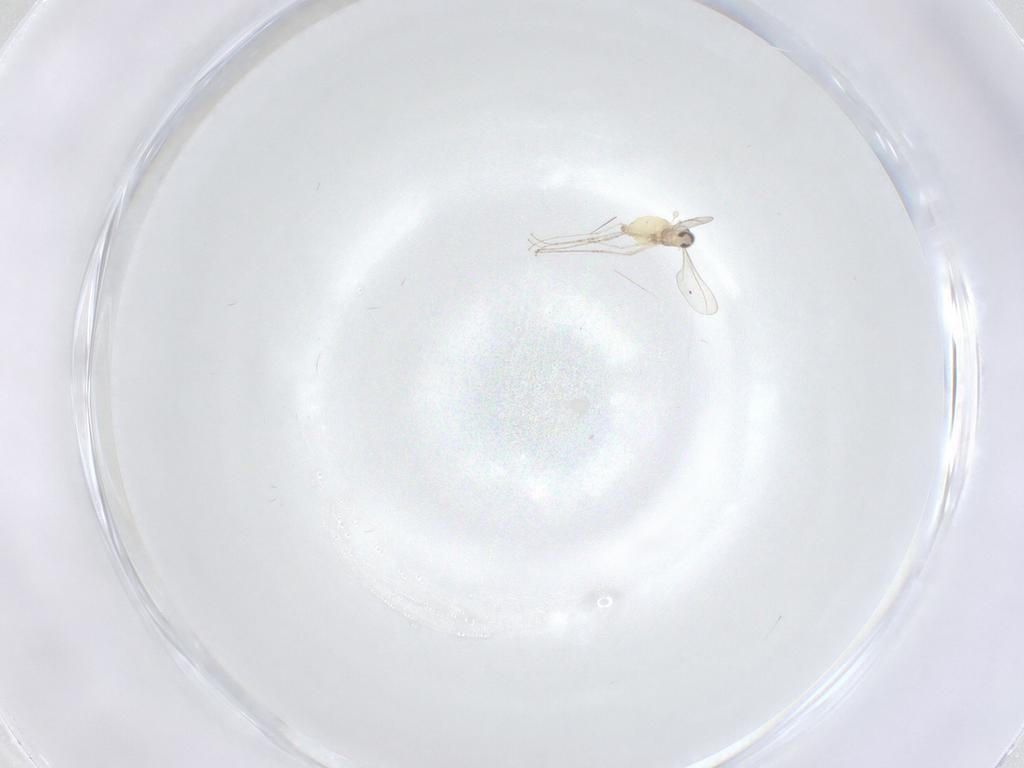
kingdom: Animalia
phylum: Arthropoda
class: Insecta
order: Diptera
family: Cecidomyiidae
